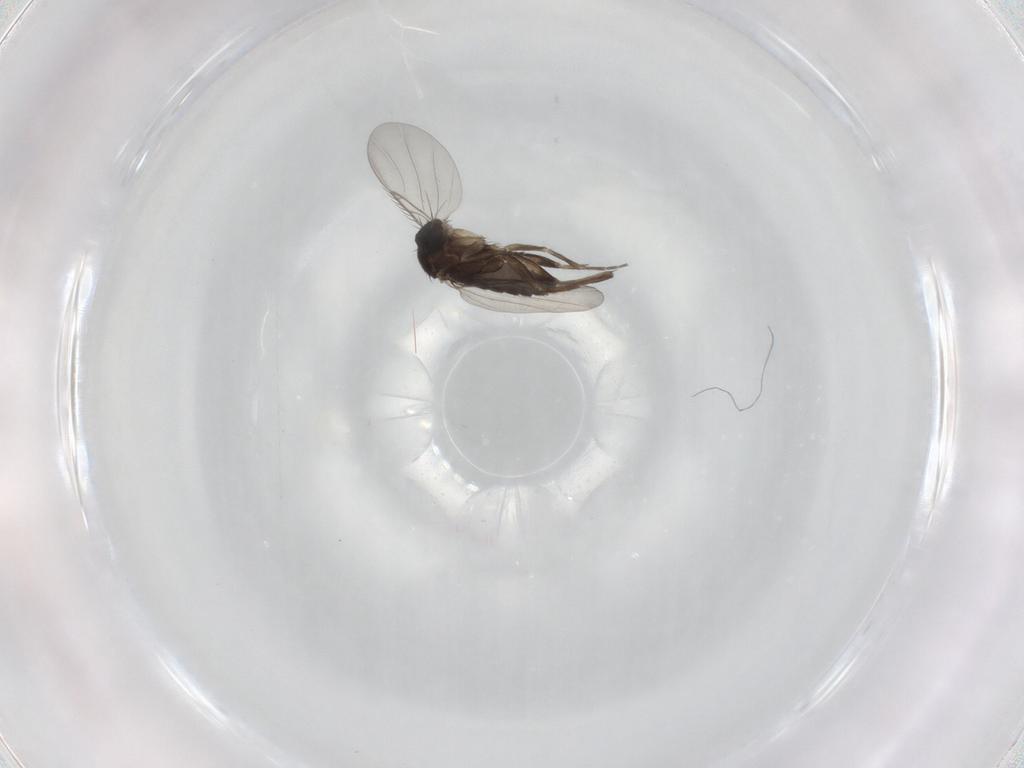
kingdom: Animalia
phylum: Arthropoda
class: Insecta
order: Diptera
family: Phoridae
